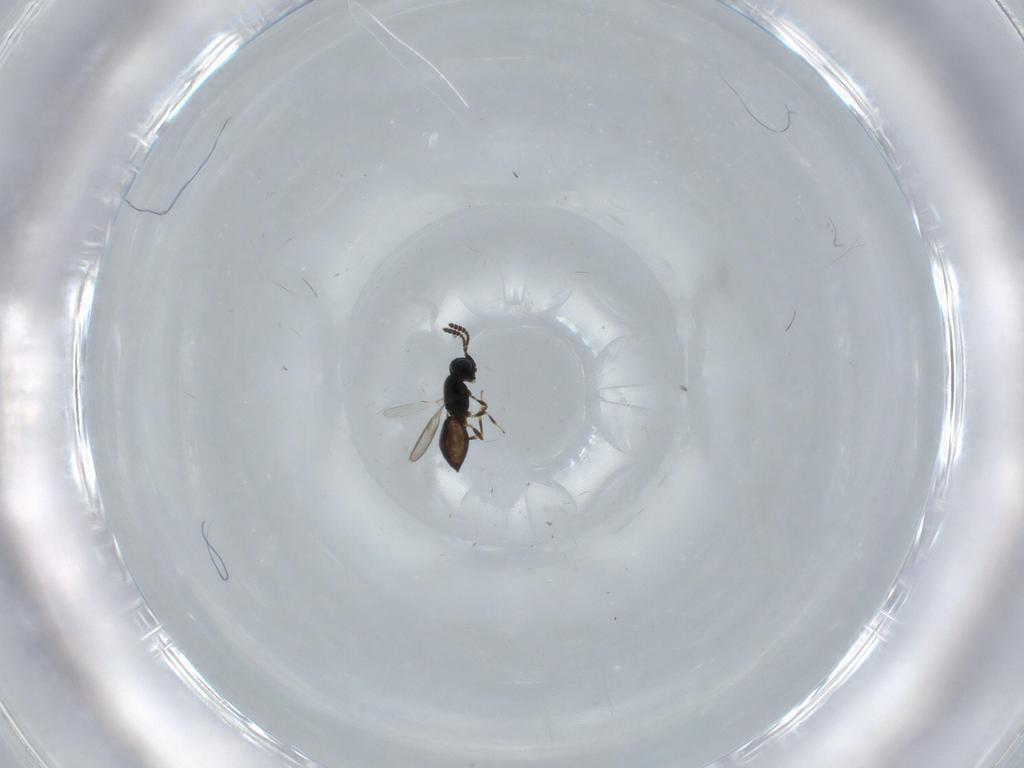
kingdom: Animalia
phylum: Arthropoda
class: Insecta
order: Hymenoptera
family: Scelionidae
